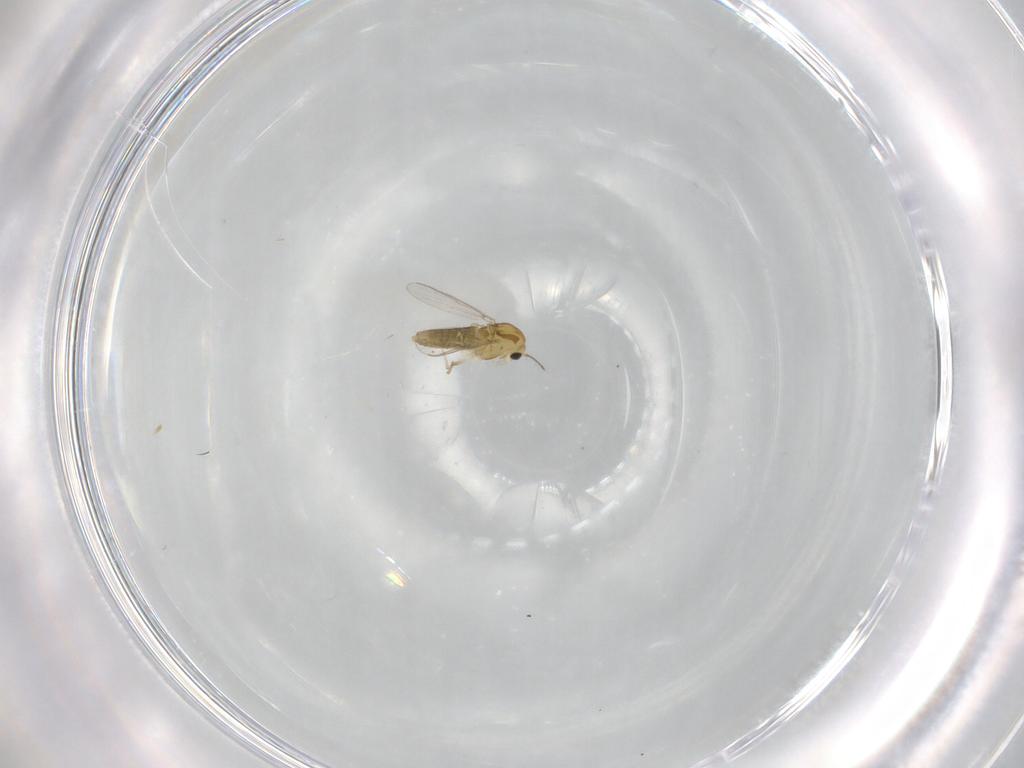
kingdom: Animalia
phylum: Arthropoda
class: Insecta
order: Diptera
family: Chironomidae
